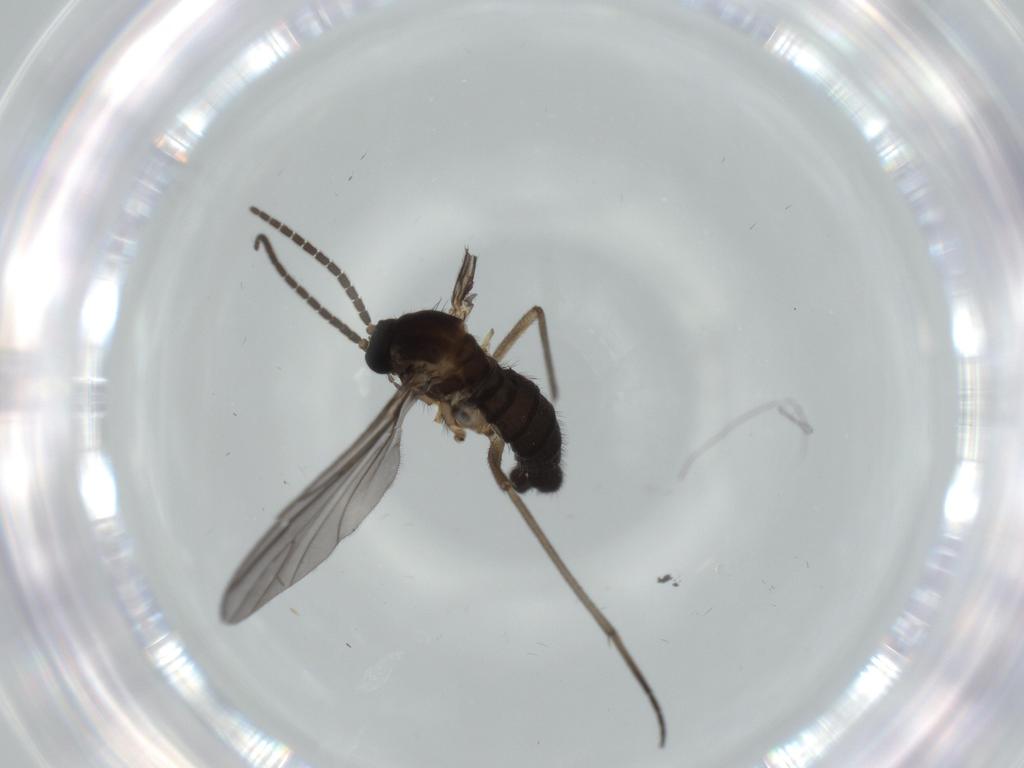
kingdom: Animalia
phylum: Arthropoda
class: Insecta
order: Diptera
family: Sciaridae
